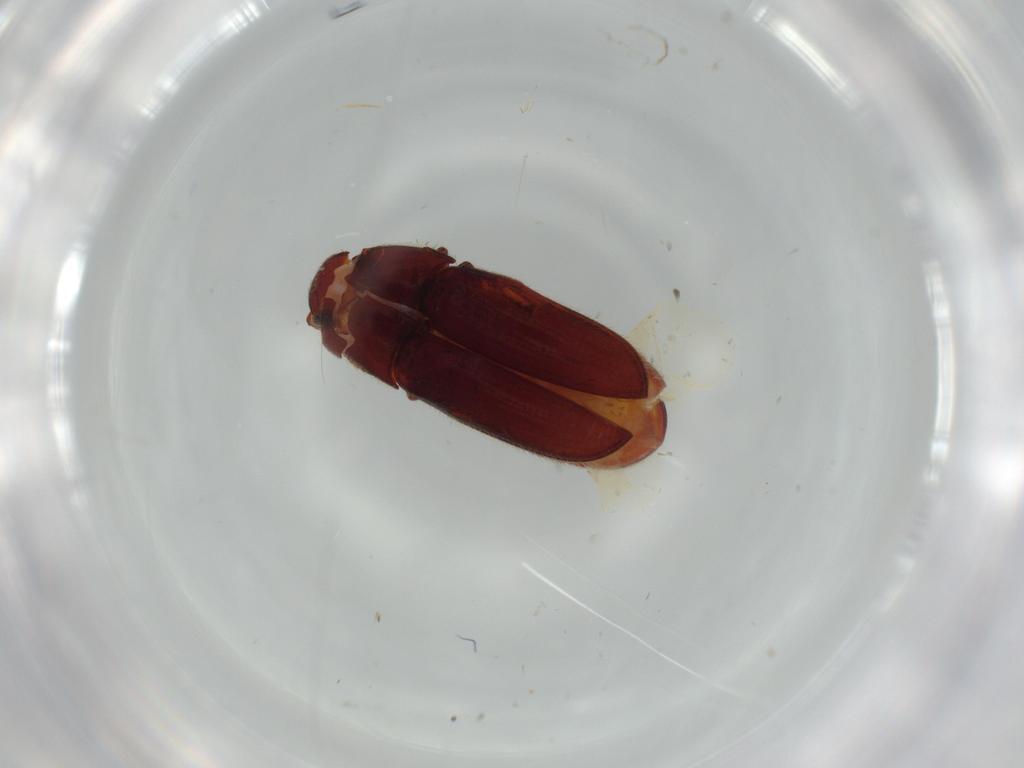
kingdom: Animalia
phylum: Arthropoda
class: Insecta
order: Coleoptera
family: Throscidae
